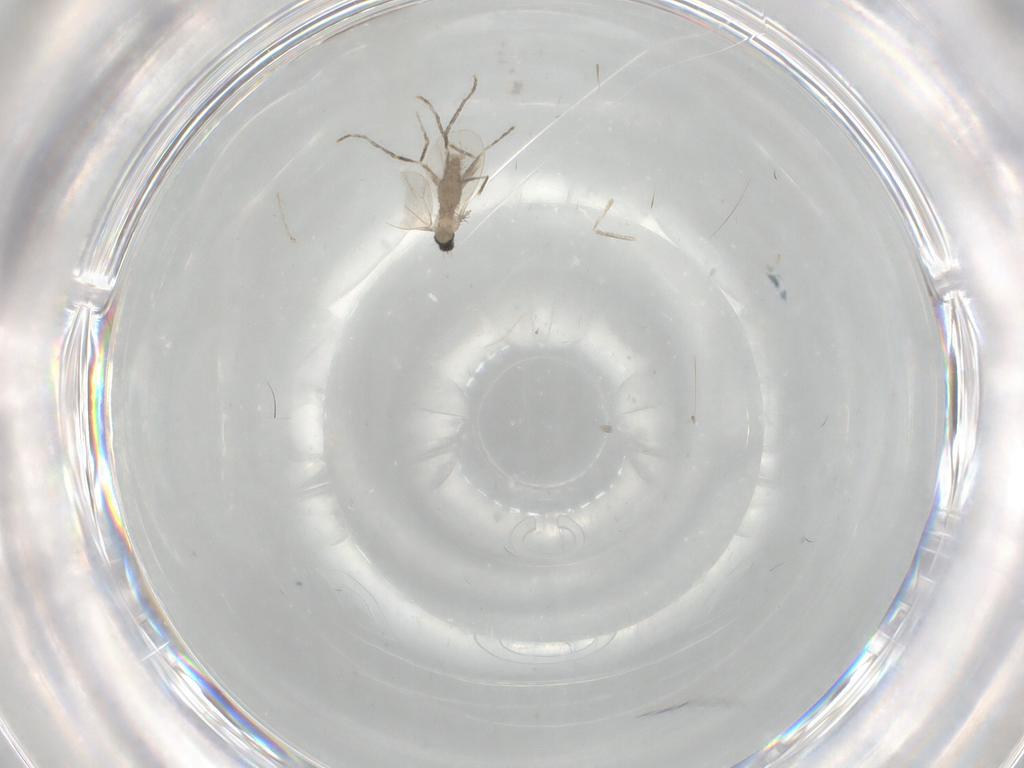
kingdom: Animalia
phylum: Arthropoda
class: Insecta
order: Diptera
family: Cecidomyiidae
